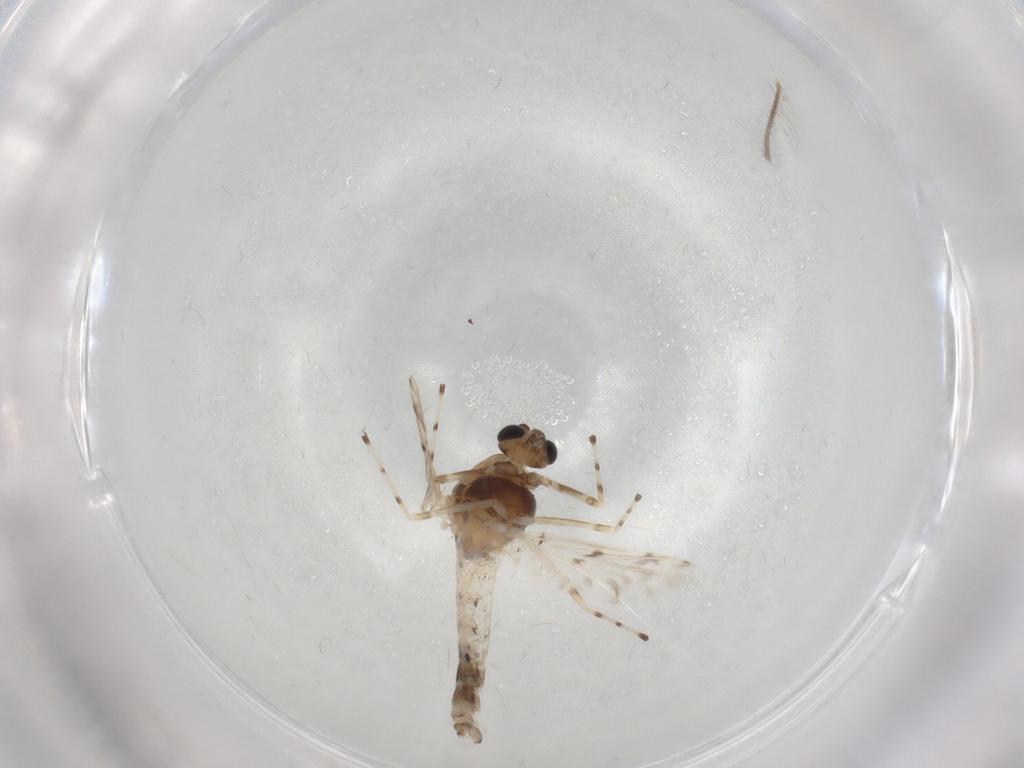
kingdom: Animalia
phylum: Arthropoda
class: Insecta
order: Diptera
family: Chironomidae
